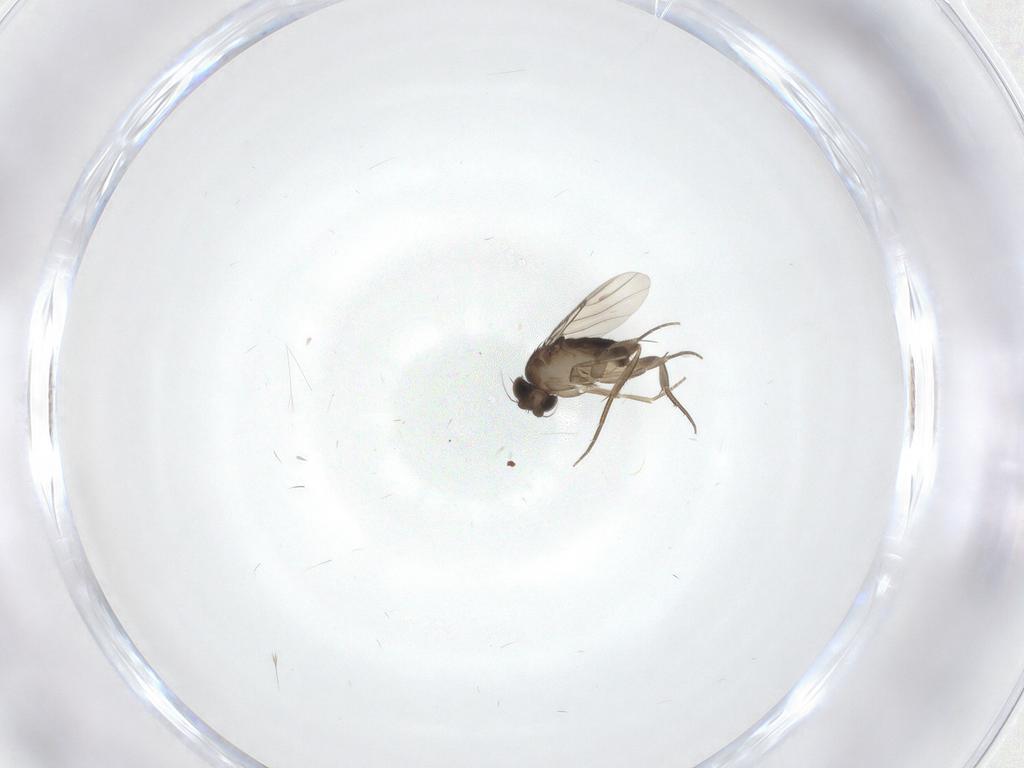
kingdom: Animalia
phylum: Arthropoda
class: Insecta
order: Diptera
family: Phoridae
